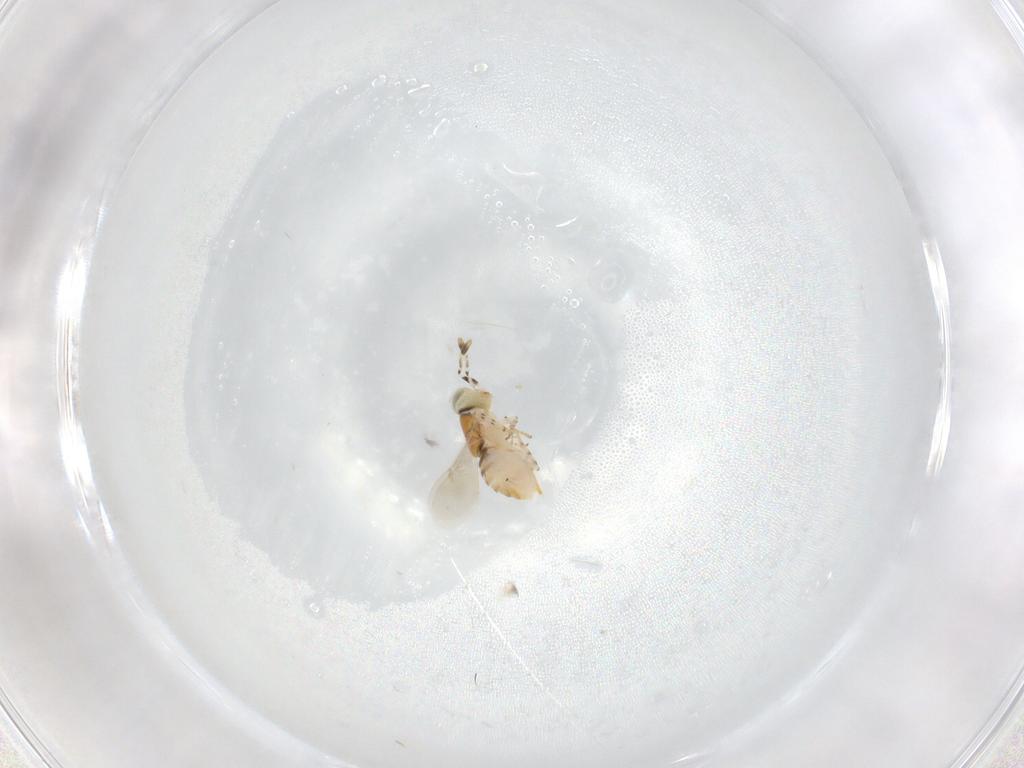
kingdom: Animalia
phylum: Arthropoda
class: Insecta
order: Hymenoptera
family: Encyrtidae
